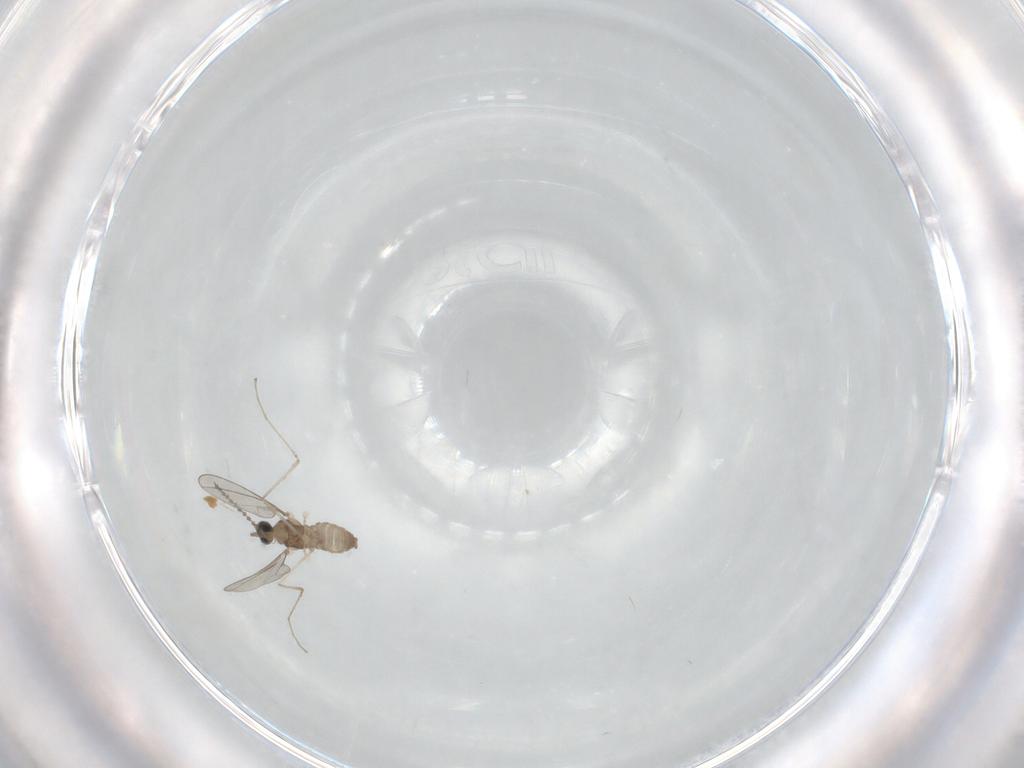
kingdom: Animalia
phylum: Arthropoda
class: Insecta
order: Diptera
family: Cecidomyiidae
